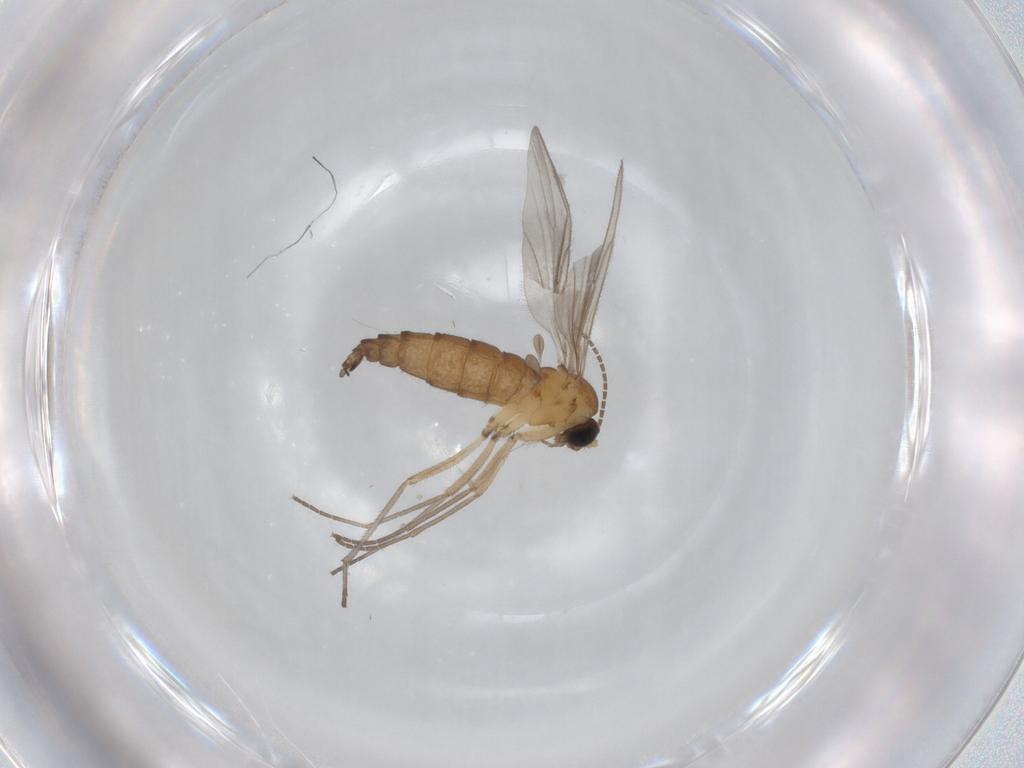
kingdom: Animalia
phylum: Arthropoda
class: Insecta
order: Diptera
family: Sciaridae
